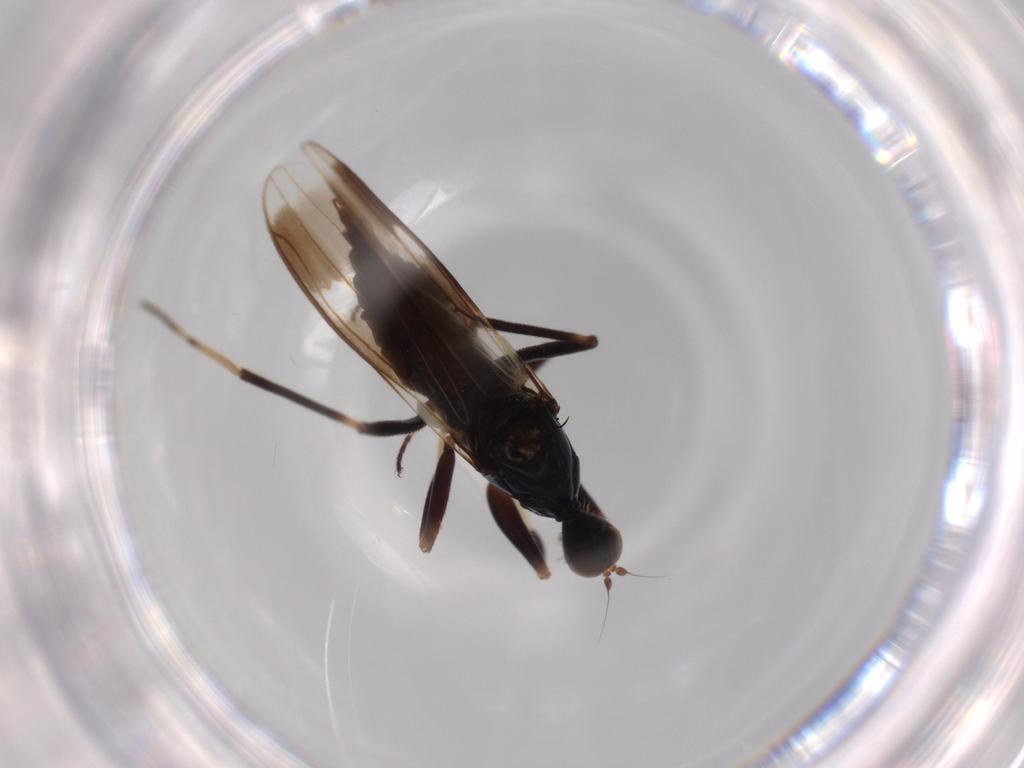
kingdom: Animalia
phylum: Arthropoda
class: Insecta
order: Diptera
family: Hybotidae
